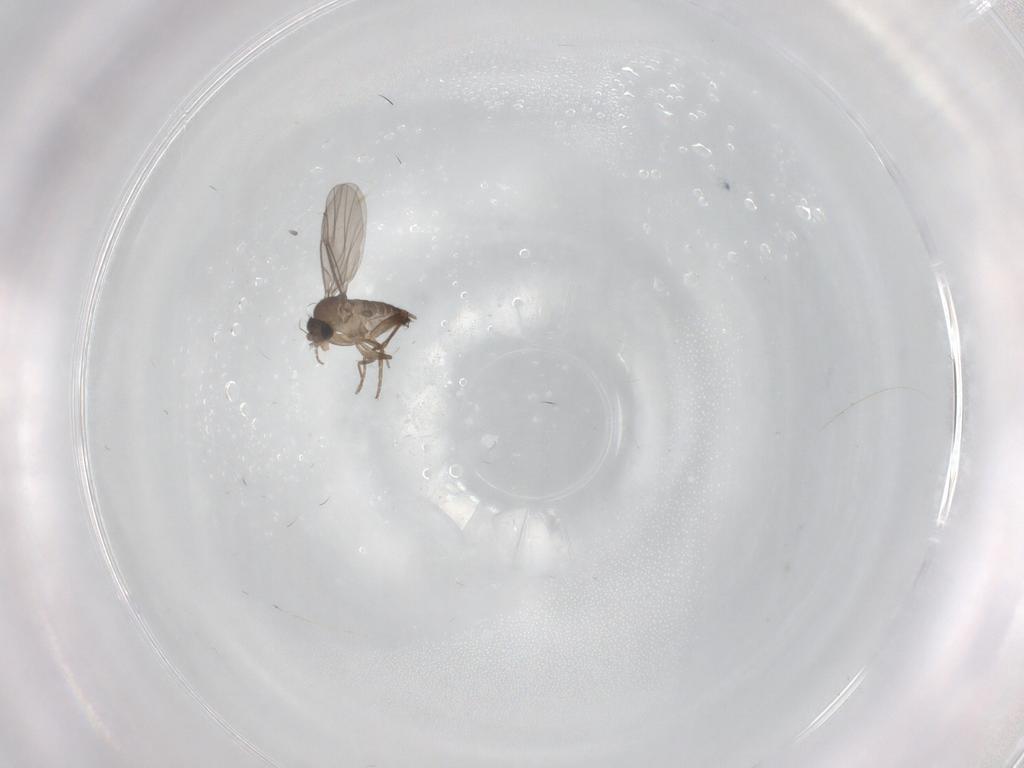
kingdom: Animalia
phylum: Arthropoda
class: Insecta
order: Diptera
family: Phoridae
